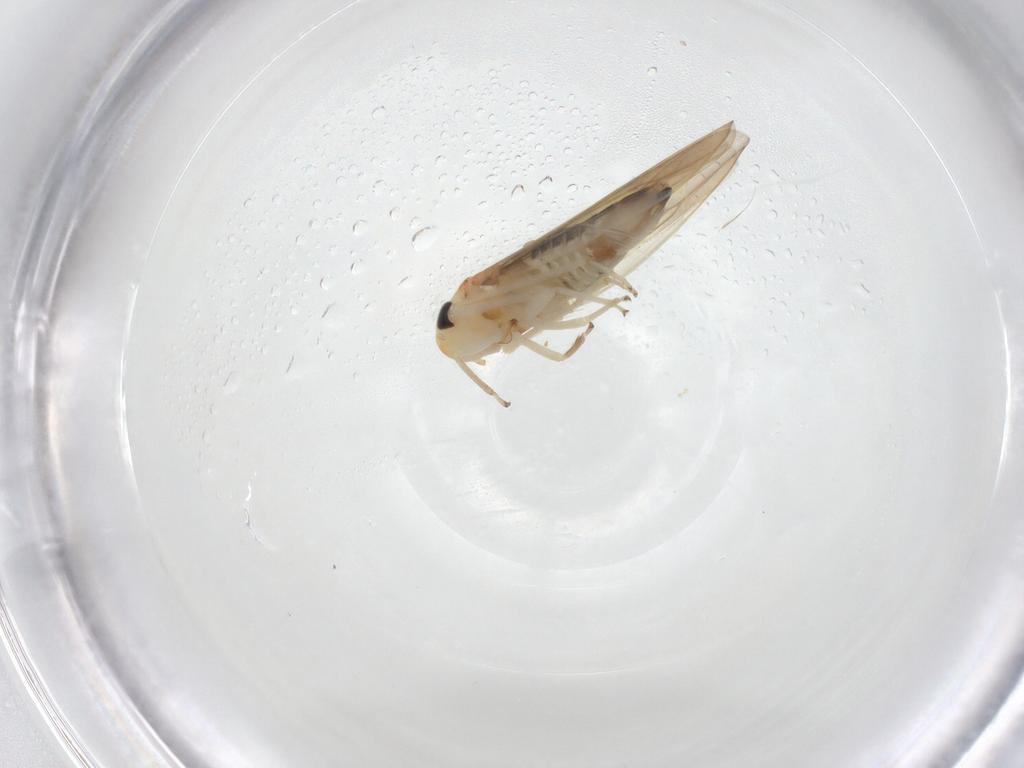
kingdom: Animalia
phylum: Arthropoda
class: Insecta
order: Hemiptera
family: Cicadellidae
